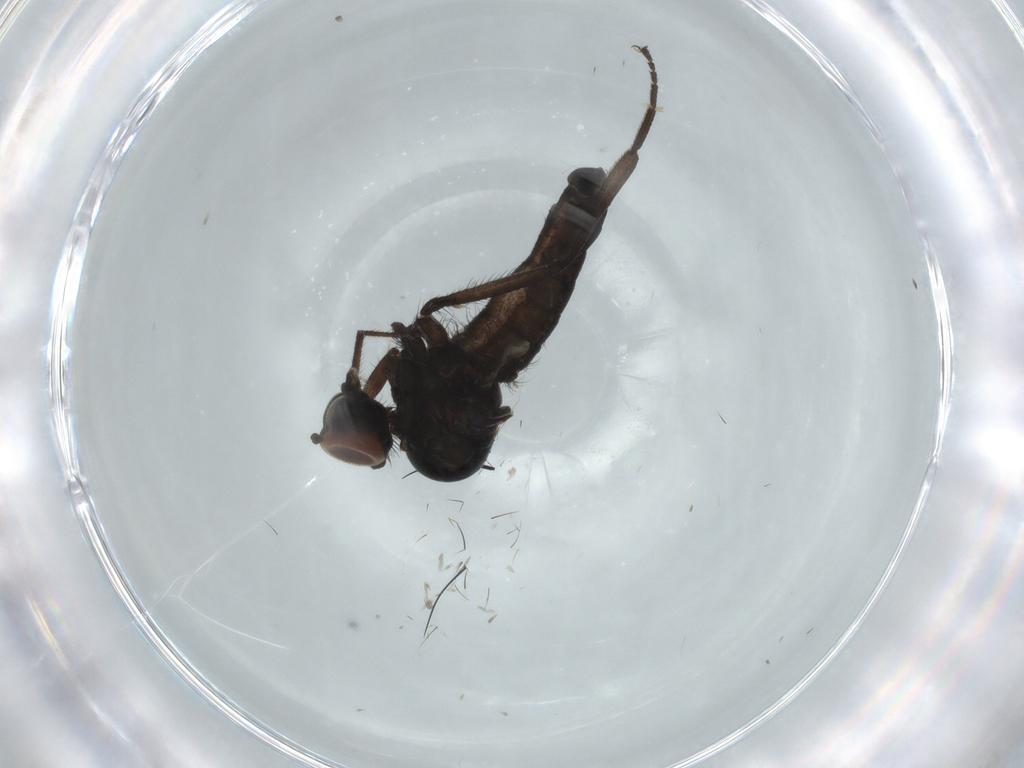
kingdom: Animalia
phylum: Arthropoda
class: Insecta
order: Diptera
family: Hybotidae
